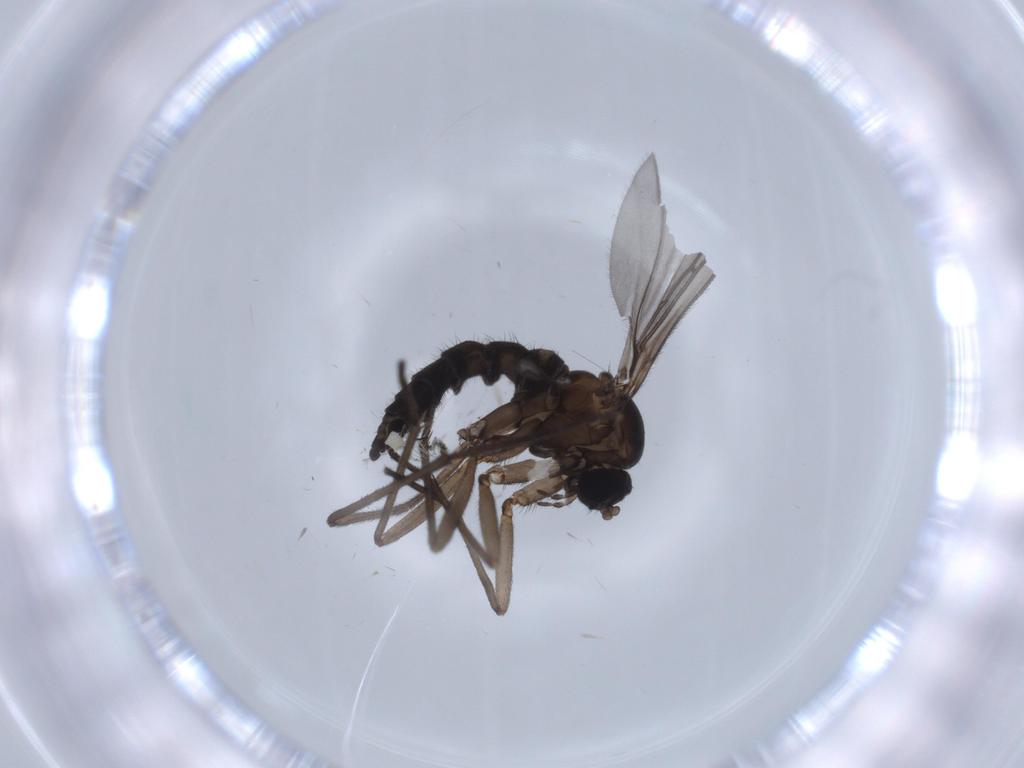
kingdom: Animalia
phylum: Arthropoda
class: Insecta
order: Diptera
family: Sciaridae
